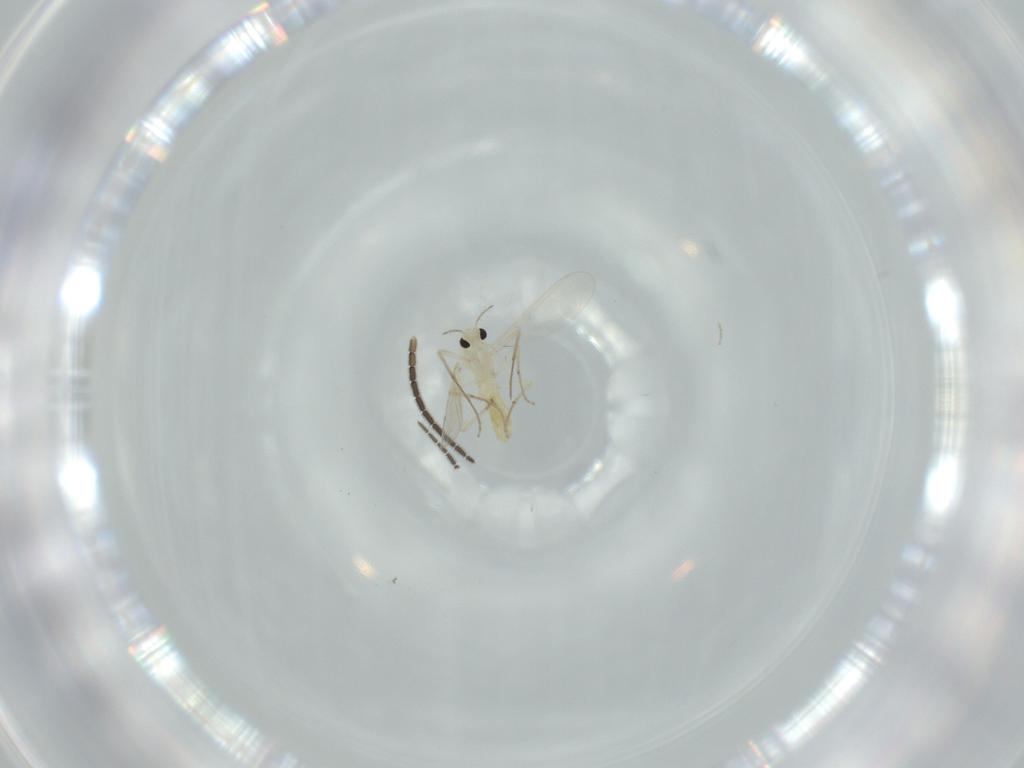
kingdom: Animalia
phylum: Arthropoda
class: Insecta
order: Diptera
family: Chironomidae
